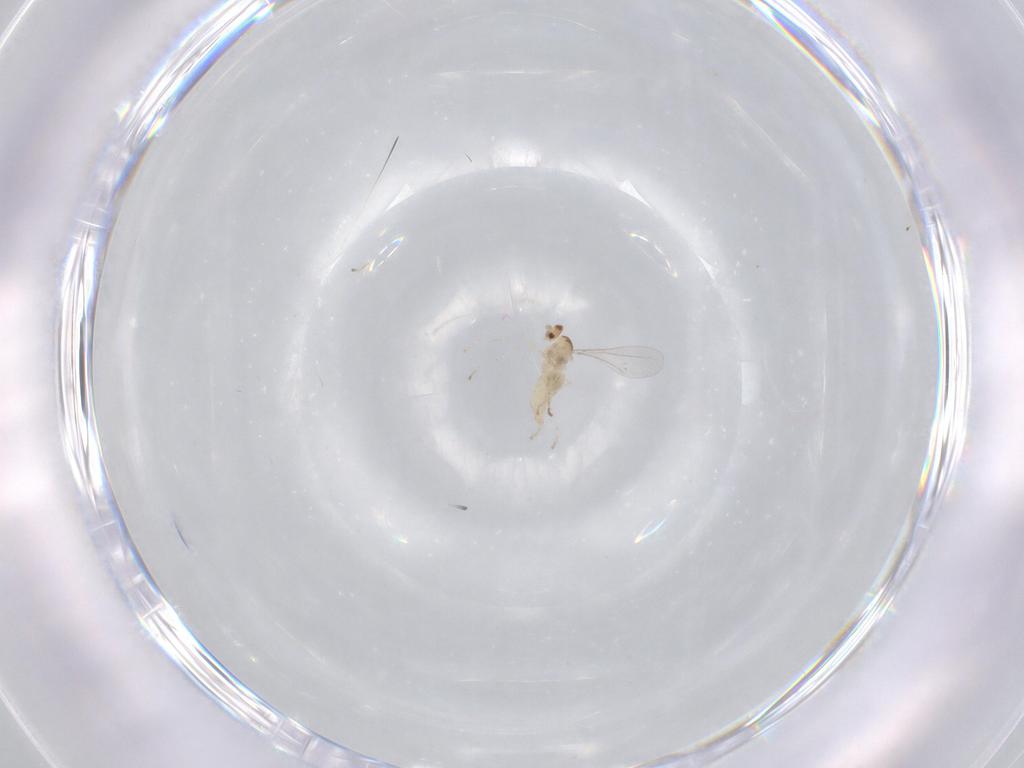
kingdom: Animalia
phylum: Arthropoda
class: Insecta
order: Diptera
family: Cecidomyiidae
